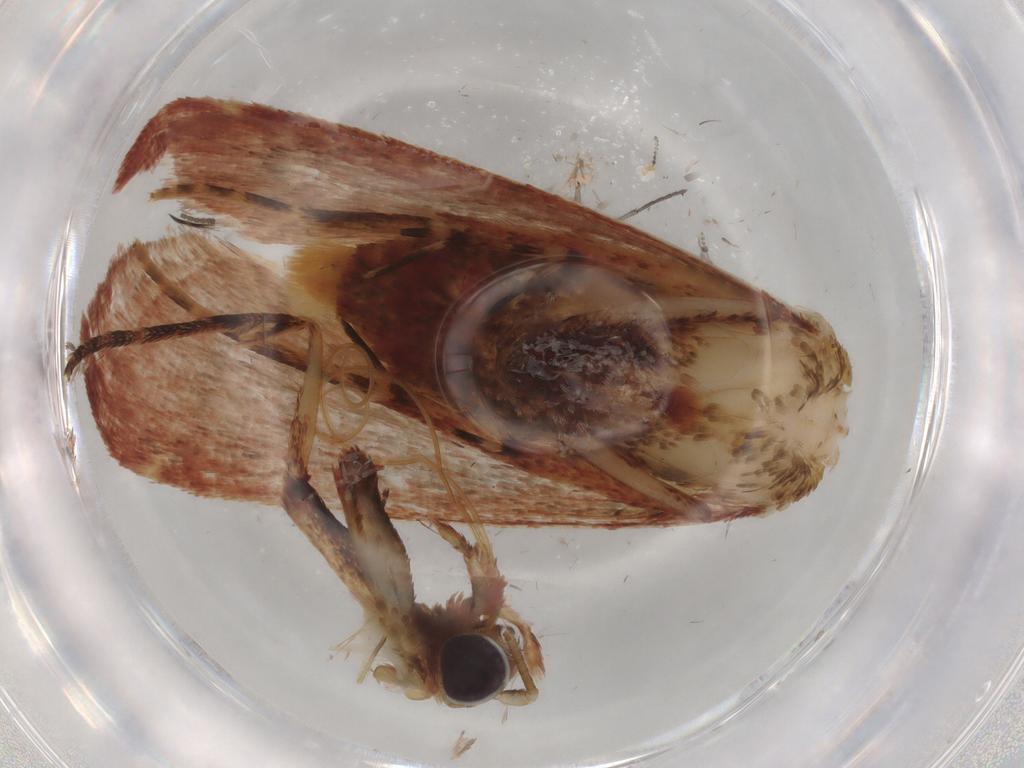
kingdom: Animalia
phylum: Arthropoda
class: Insecta
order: Lepidoptera
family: Pyralidae
